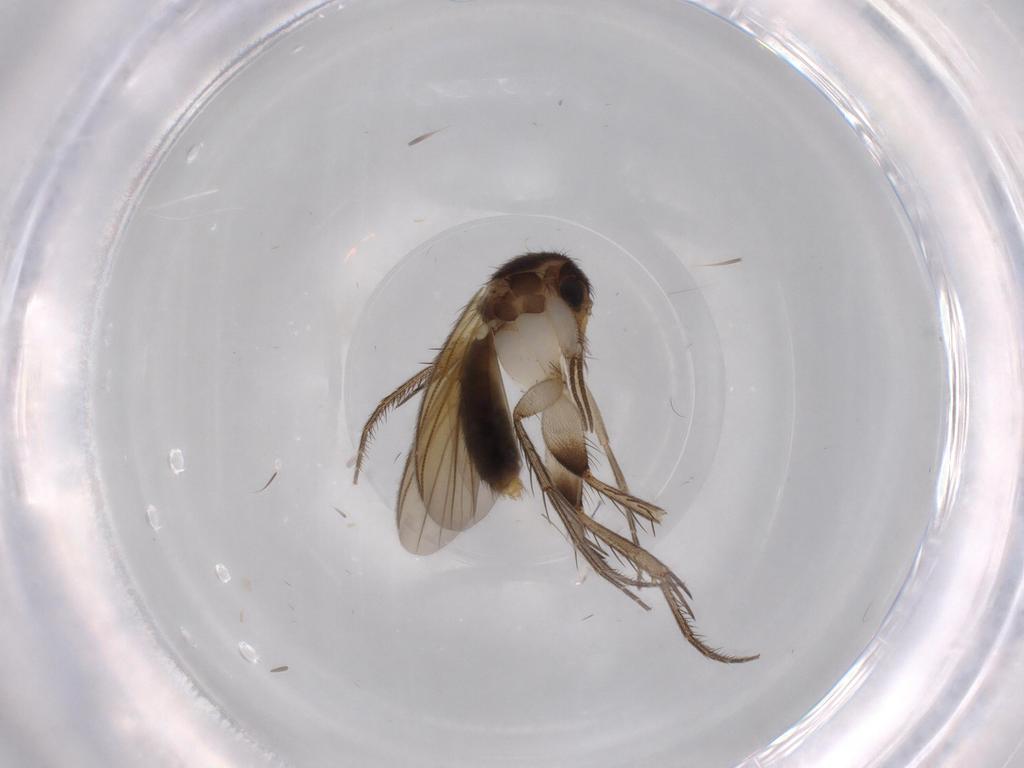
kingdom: Animalia
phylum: Arthropoda
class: Insecta
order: Diptera
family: Mycetophilidae
